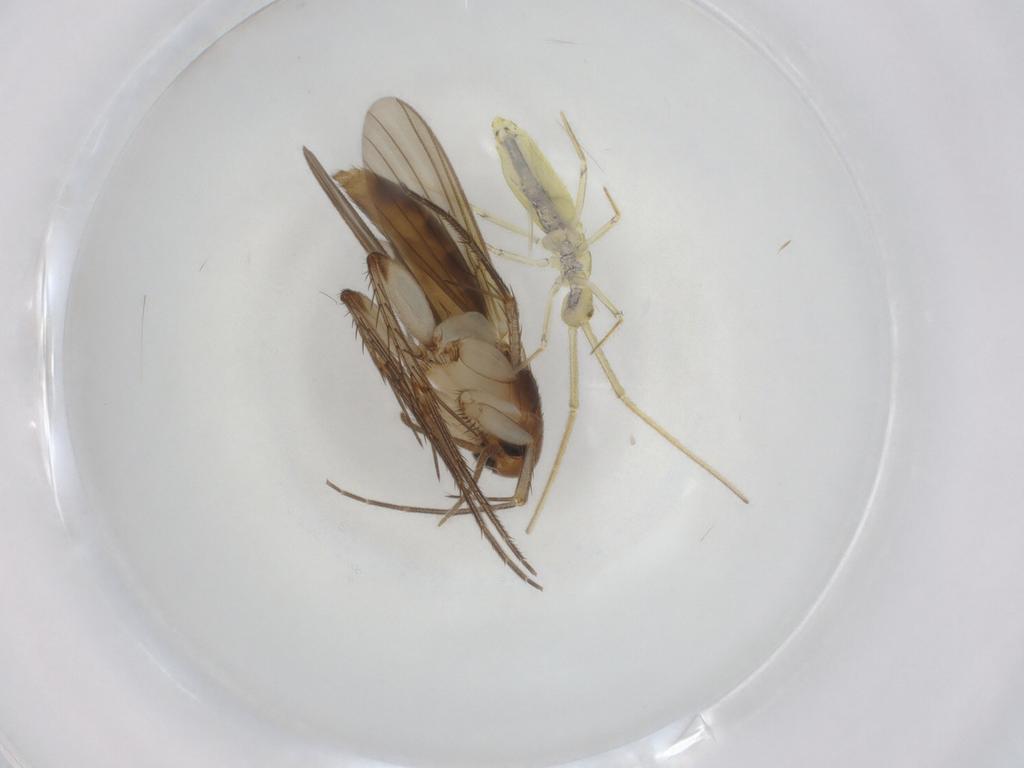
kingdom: Animalia
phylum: Arthropoda
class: Insecta
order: Diptera
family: Mycetophilidae
